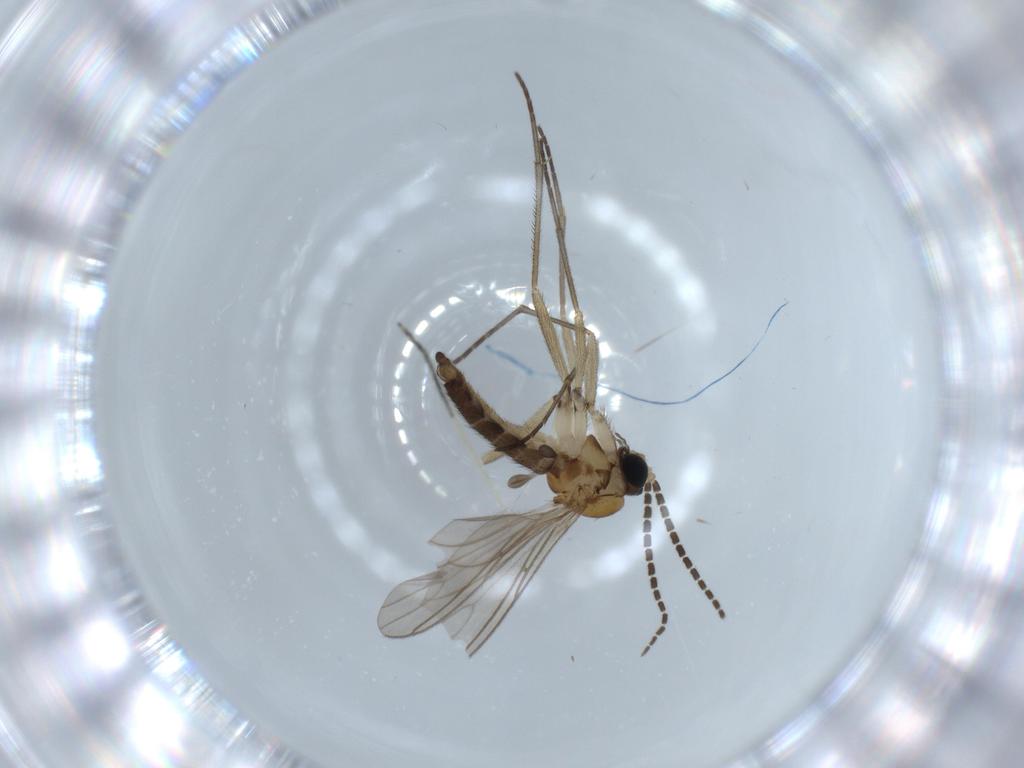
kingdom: Animalia
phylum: Arthropoda
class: Insecta
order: Diptera
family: Sciaridae
